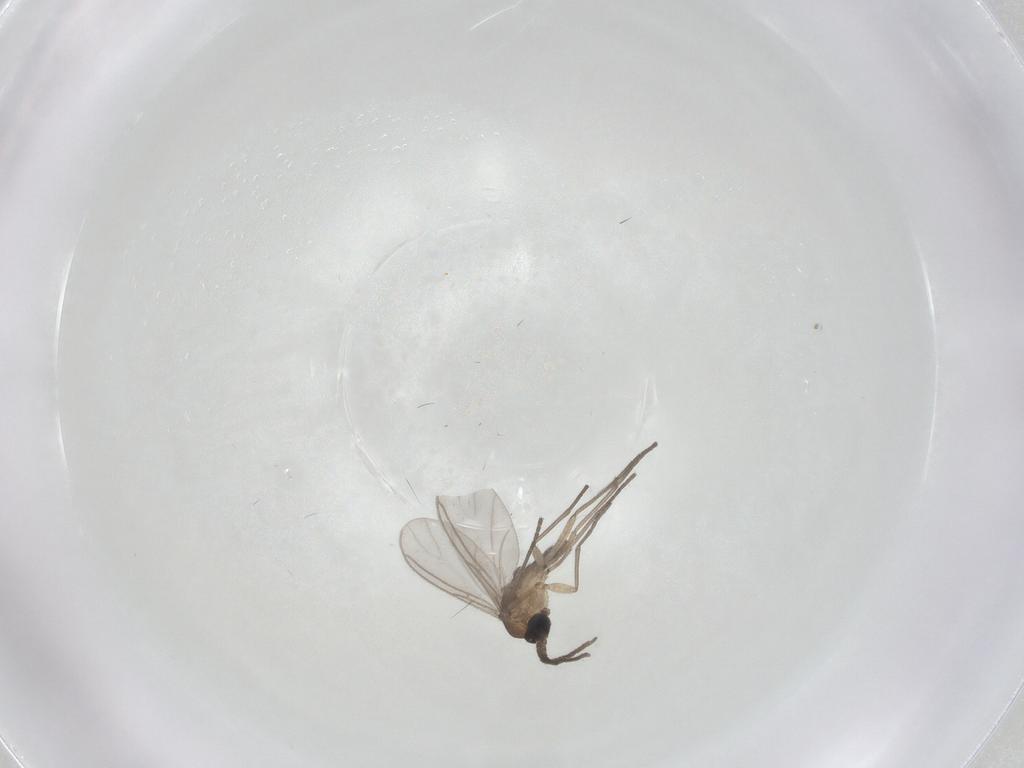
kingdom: Animalia
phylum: Arthropoda
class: Insecta
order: Diptera
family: Sciaridae
